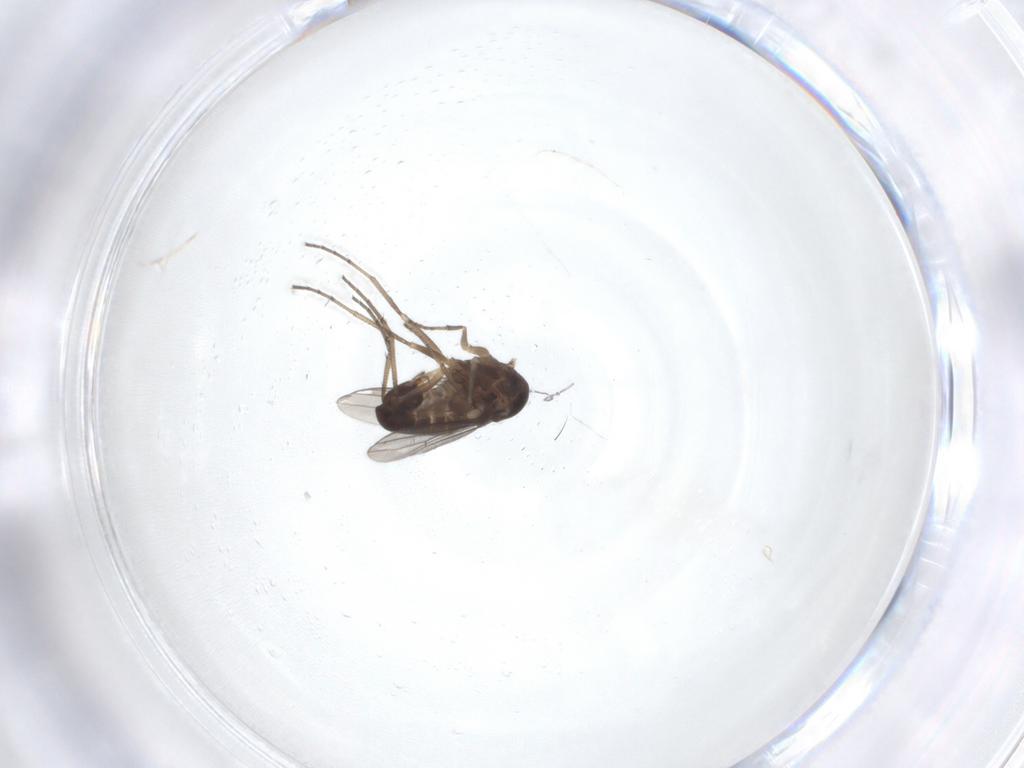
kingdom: Animalia
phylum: Arthropoda
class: Insecta
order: Diptera
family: Dolichopodidae
